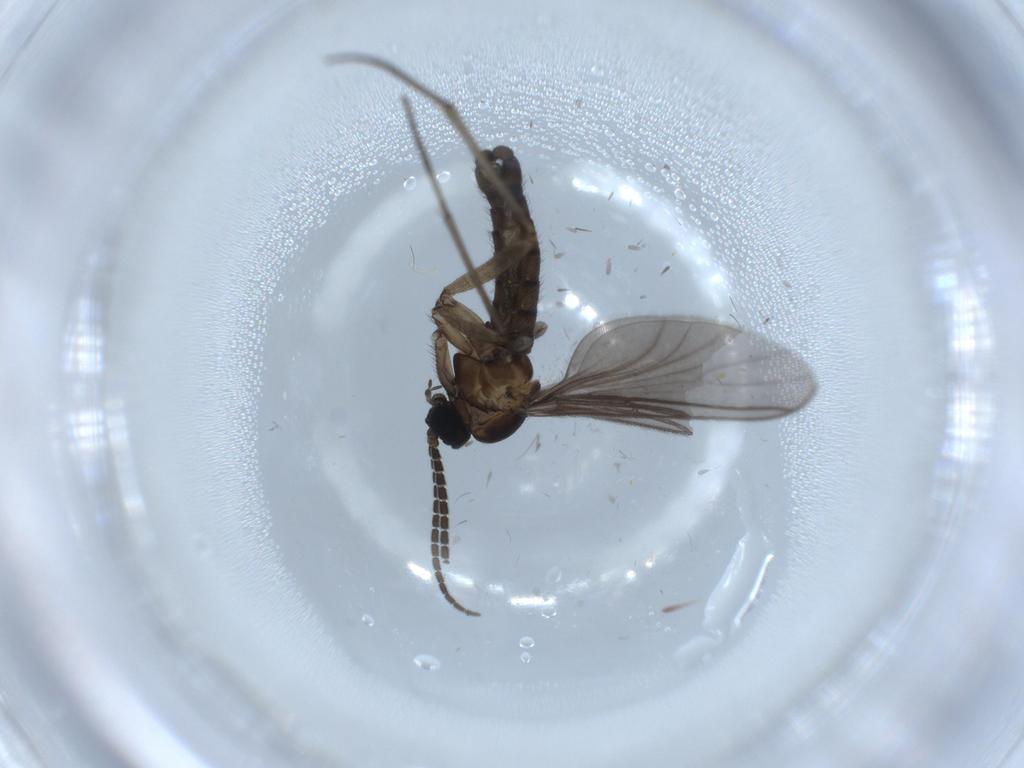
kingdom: Animalia
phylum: Arthropoda
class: Insecta
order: Diptera
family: Sciaridae
